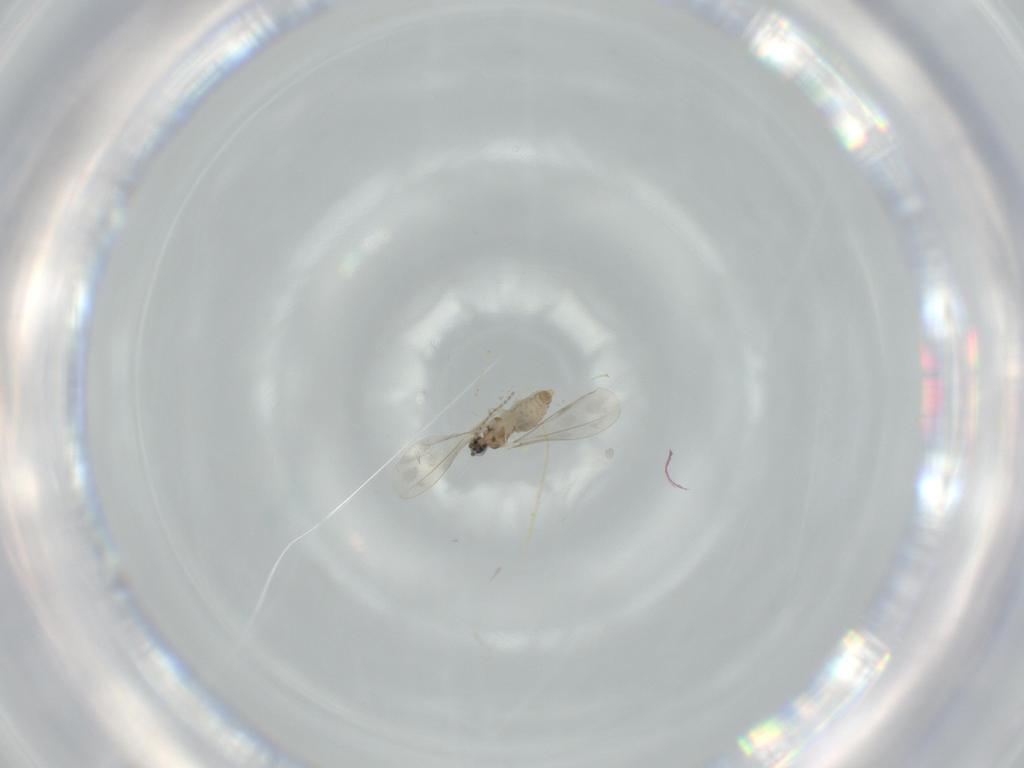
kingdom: Animalia
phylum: Arthropoda
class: Insecta
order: Diptera
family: Cecidomyiidae
